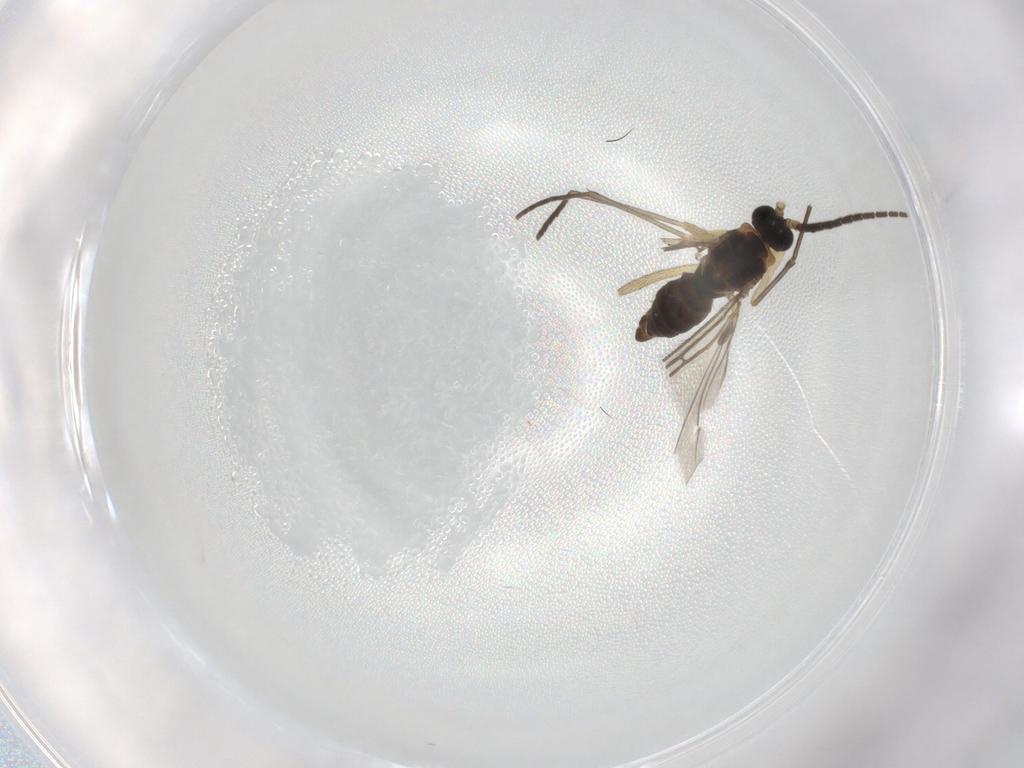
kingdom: Animalia
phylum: Arthropoda
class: Insecta
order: Diptera
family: Sciaridae
